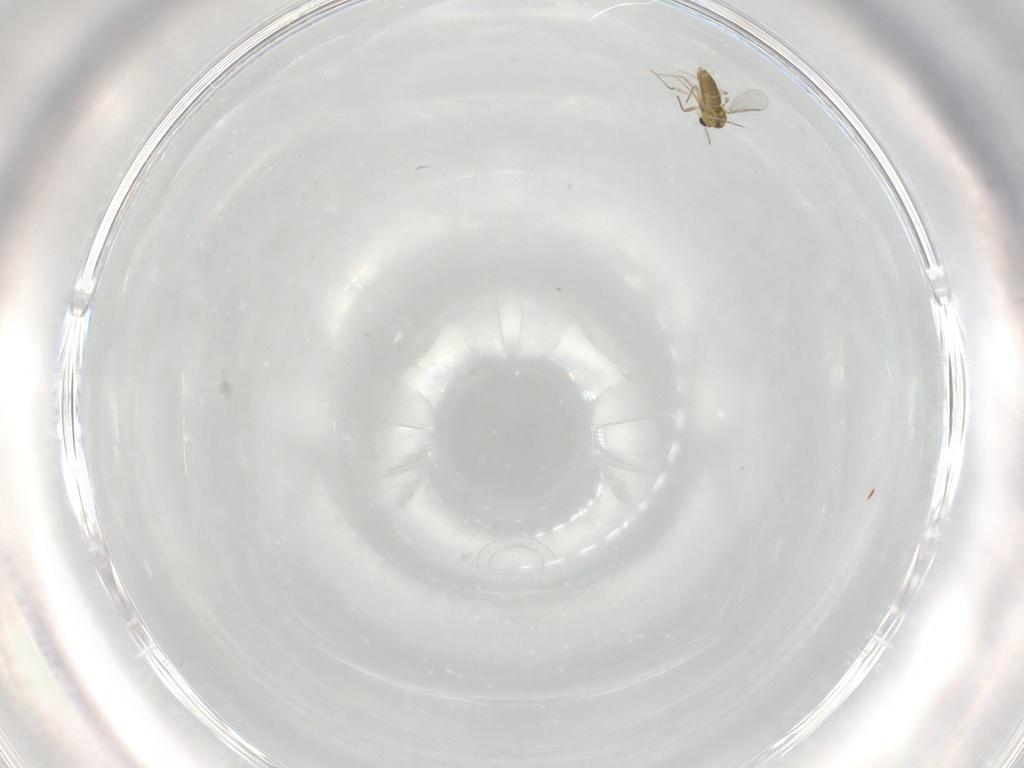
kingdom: Animalia
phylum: Arthropoda
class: Insecta
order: Diptera
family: Chironomidae
